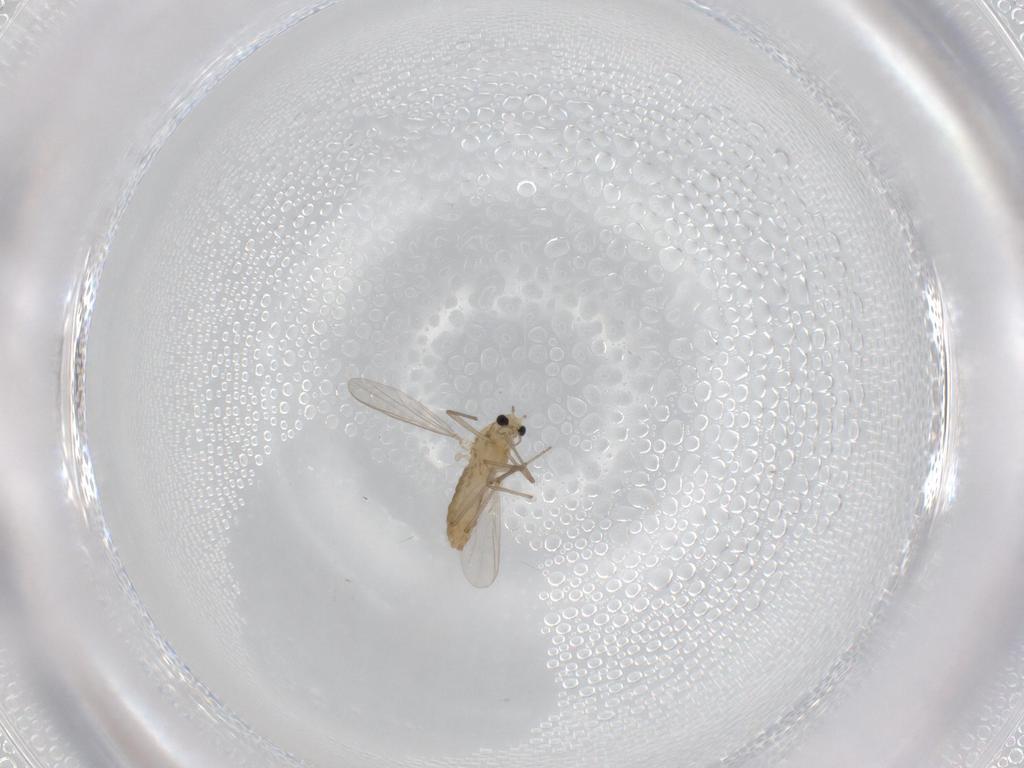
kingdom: Animalia
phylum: Arthropoda
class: Insecta
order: Diptera
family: Chironomidae
